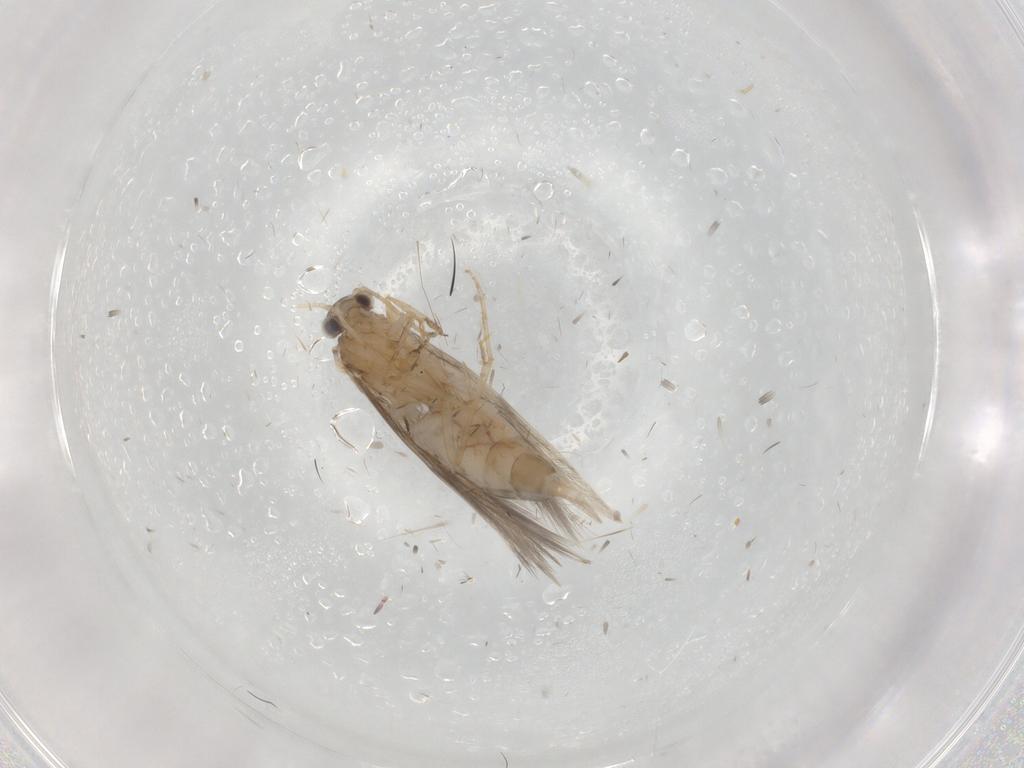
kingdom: Animalia
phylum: Arthropoda
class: Insecta
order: Trichoptera
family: Hydroptilidae
